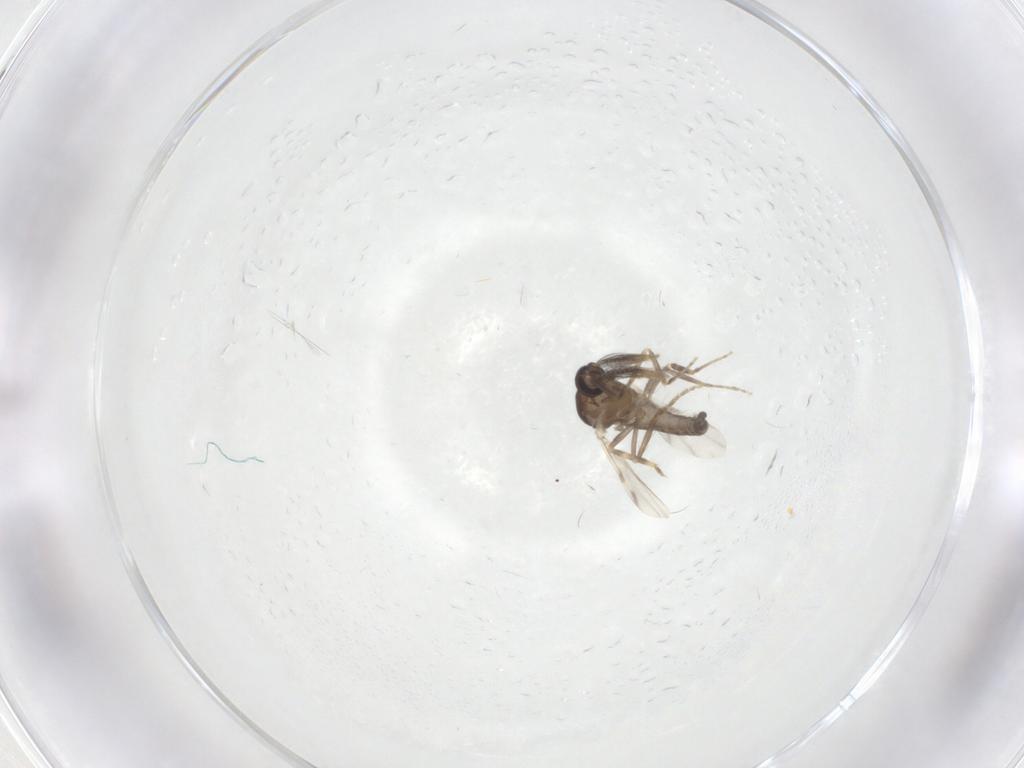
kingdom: Animalia
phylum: Arthropoda
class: Insecta
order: Diptera
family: Ceratopogonidae
